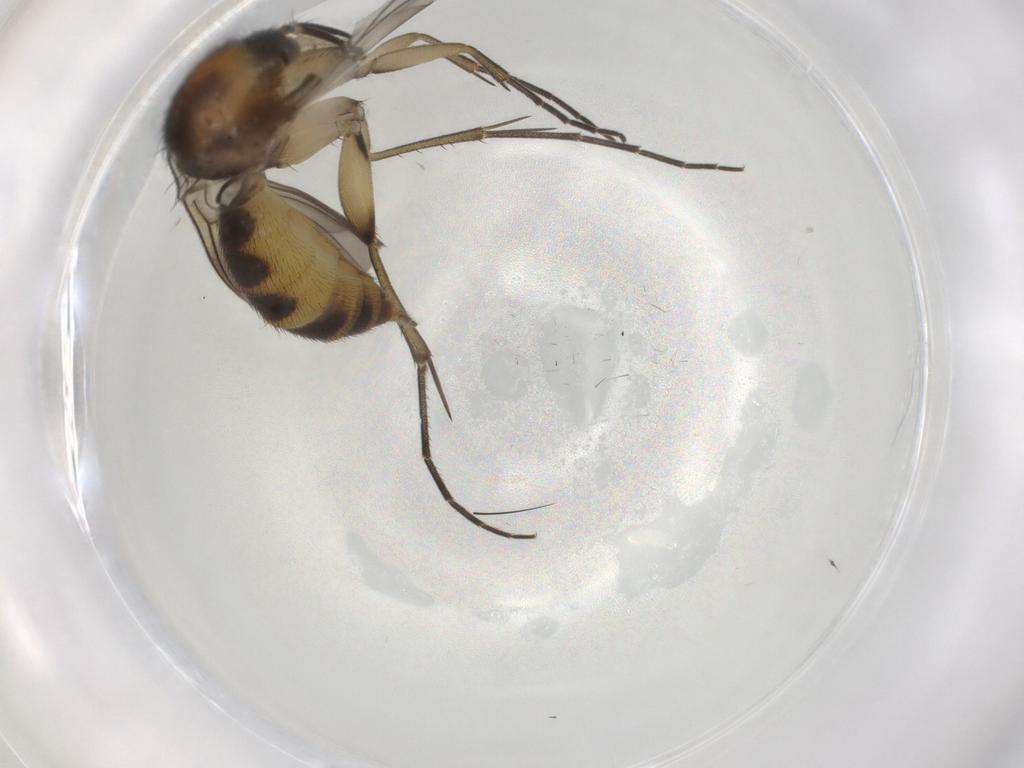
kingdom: Animalia
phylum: Arthropoda
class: Insecta
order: Diptera
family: Mycetophilidae
